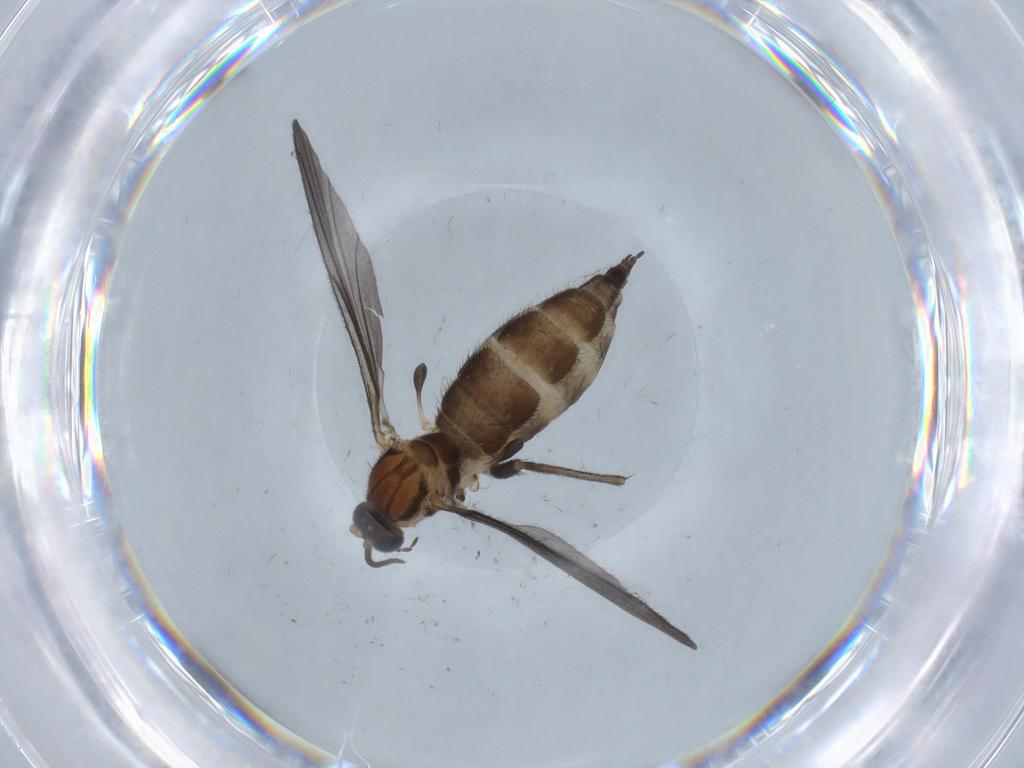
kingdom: Animalia
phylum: Arthropoda
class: Insecta
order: Diptera
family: Sciaridae
